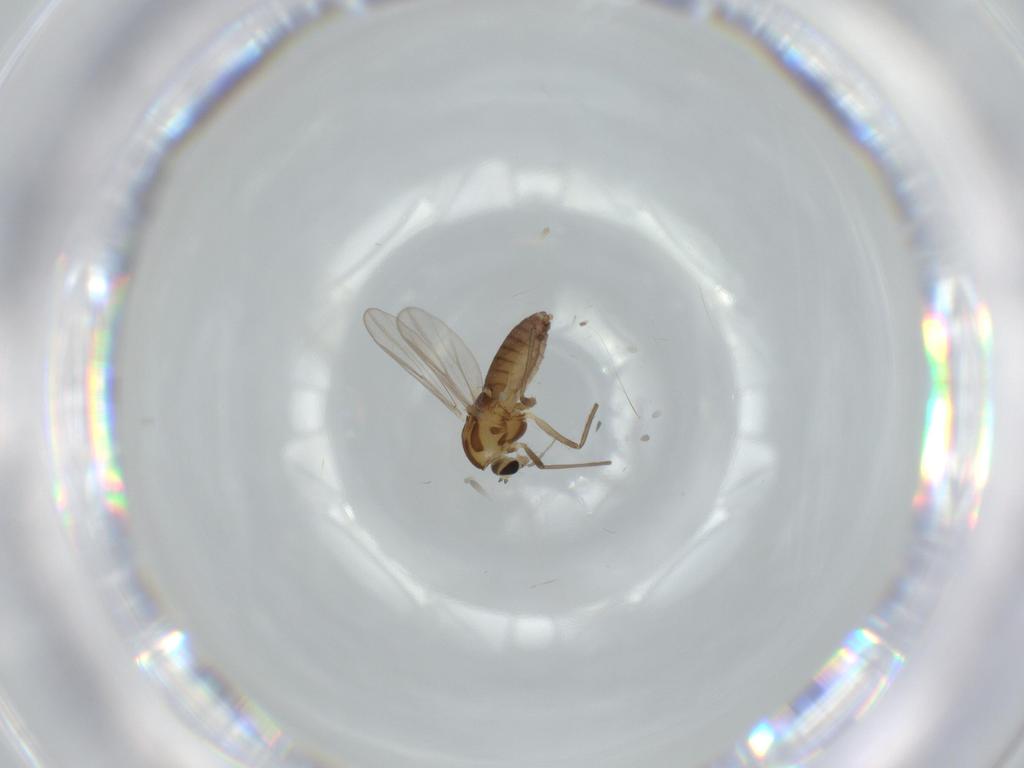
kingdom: Animalia
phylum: Arthropoda
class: Insecta
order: Diptera
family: Chironomidae
